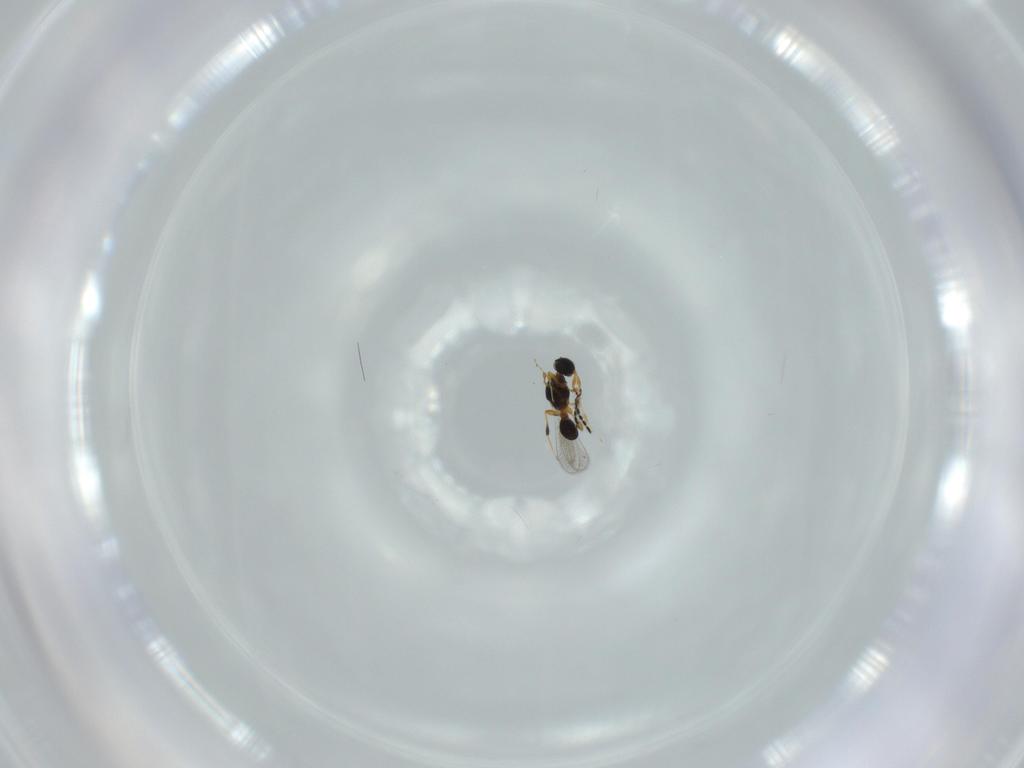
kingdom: Animalia
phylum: Arthropoda
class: Insecta
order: Hymenoptera
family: Platygastridae
